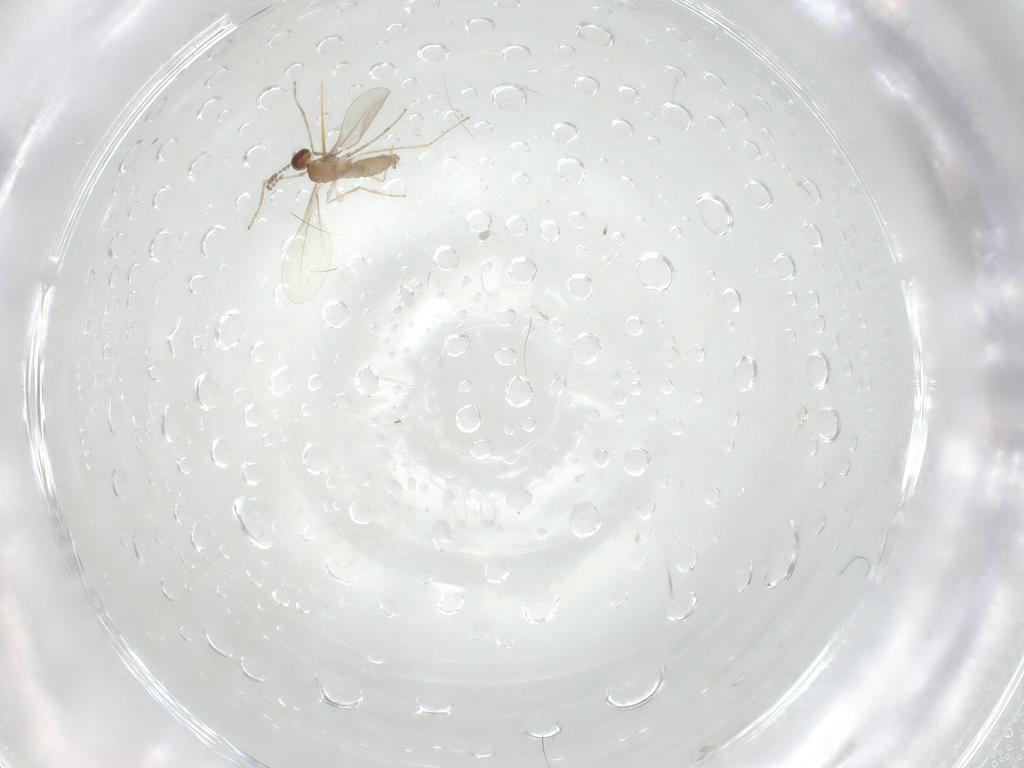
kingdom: Animalia
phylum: Arthropoda
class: Insecta
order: Diptera
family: Cecidomyiidae
